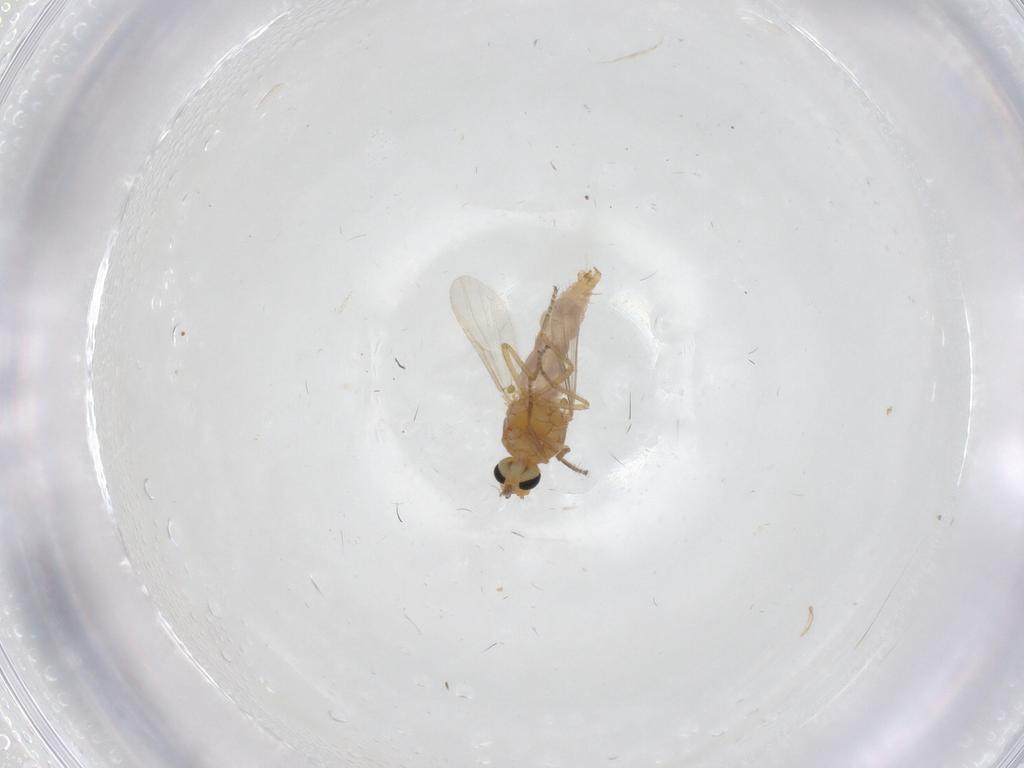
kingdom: Animalia
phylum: Arthropoda
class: Insecta
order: Diptera
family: Ceratopogonidae
